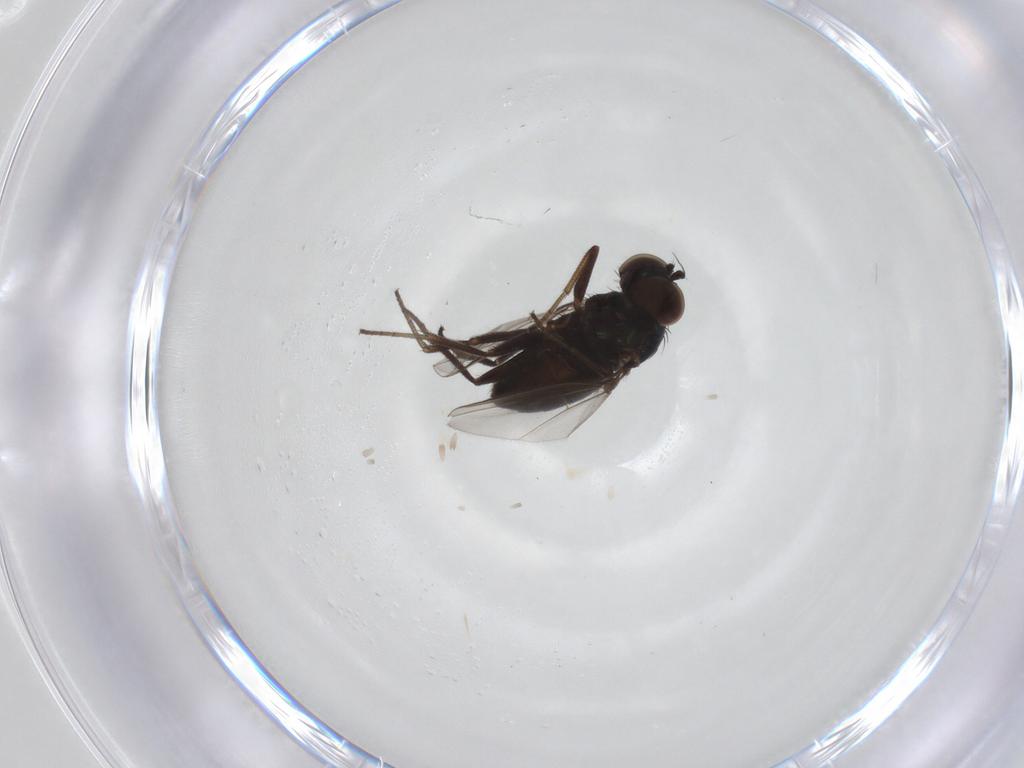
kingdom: Animalia
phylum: Arthropoda
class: Insecta
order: Diptera
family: Dolichopodidae
